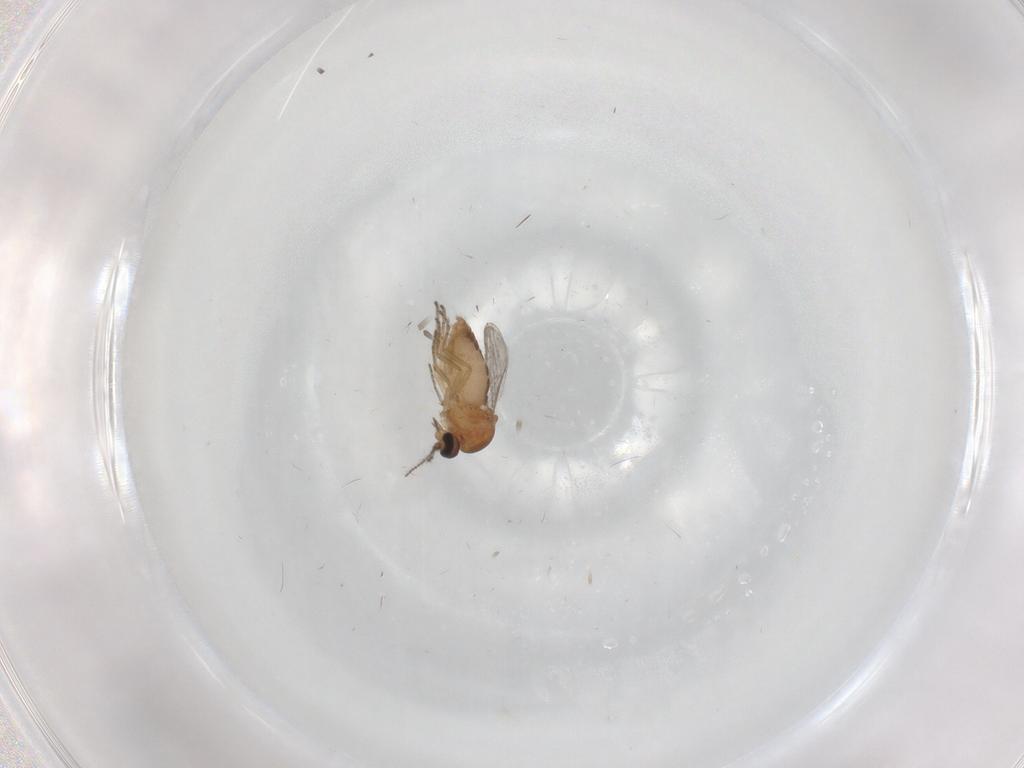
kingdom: Animalia
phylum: Arthropoda
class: Insecta
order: Diptera
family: Ceratopogonidae
